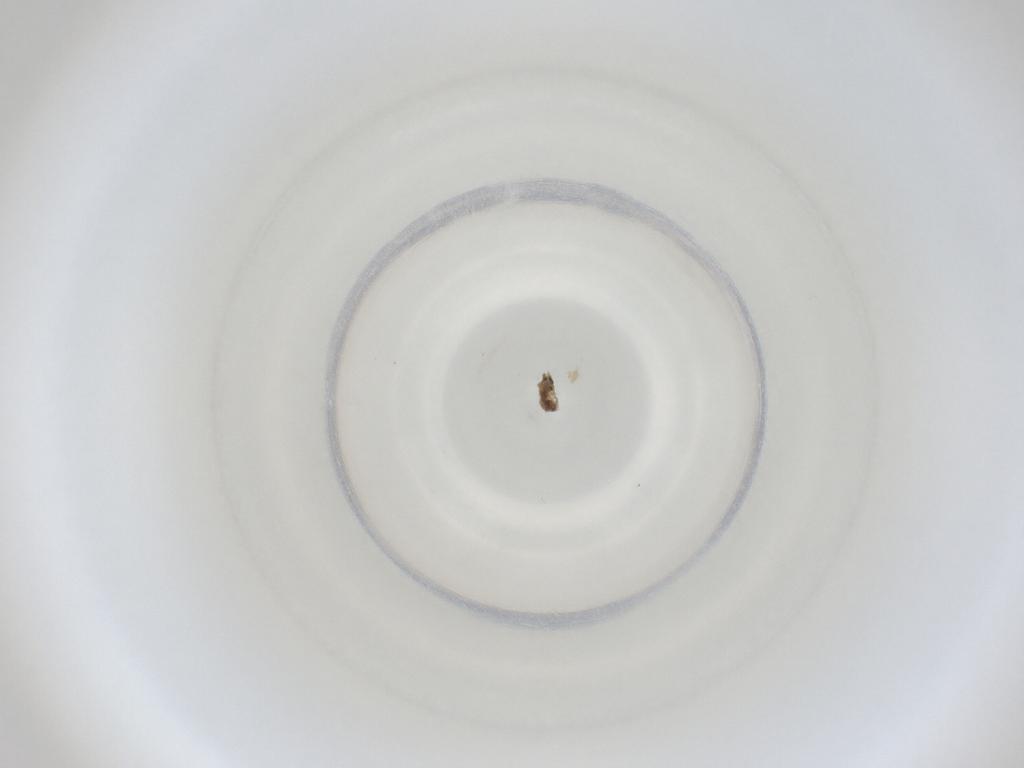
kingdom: Animalia
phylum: Arthropoda
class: Insecta
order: Diptera
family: Cecidomyiidae
